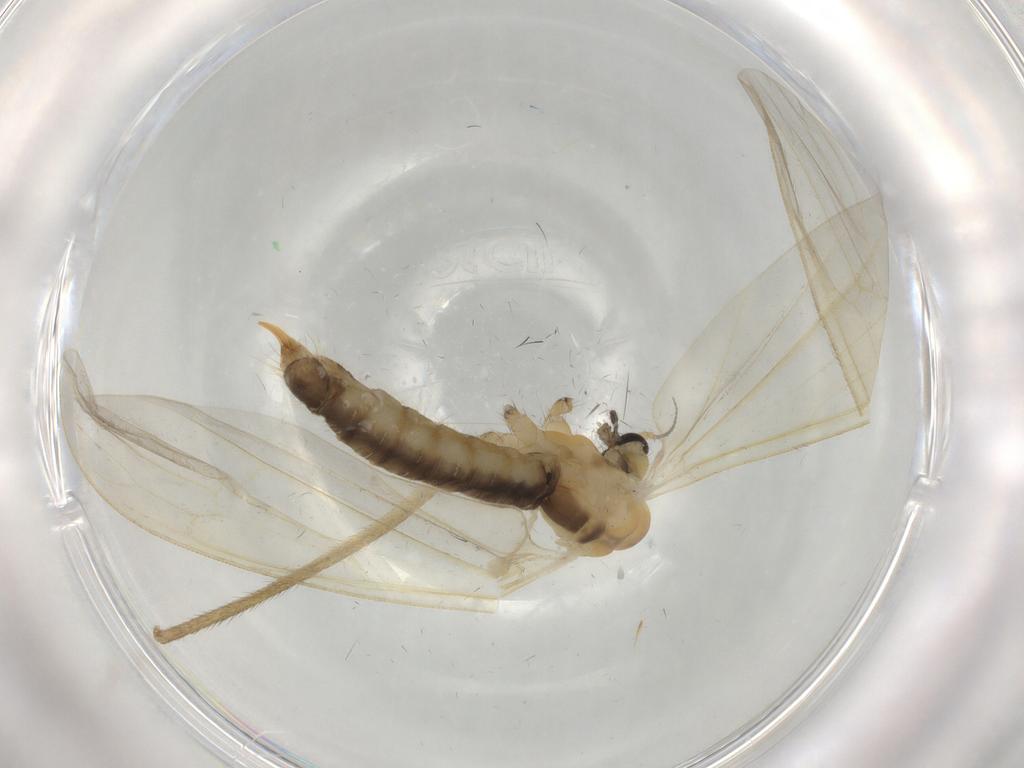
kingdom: Animalia
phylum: Arthropoda
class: Insecta
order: Diptera
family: Limoniidae
